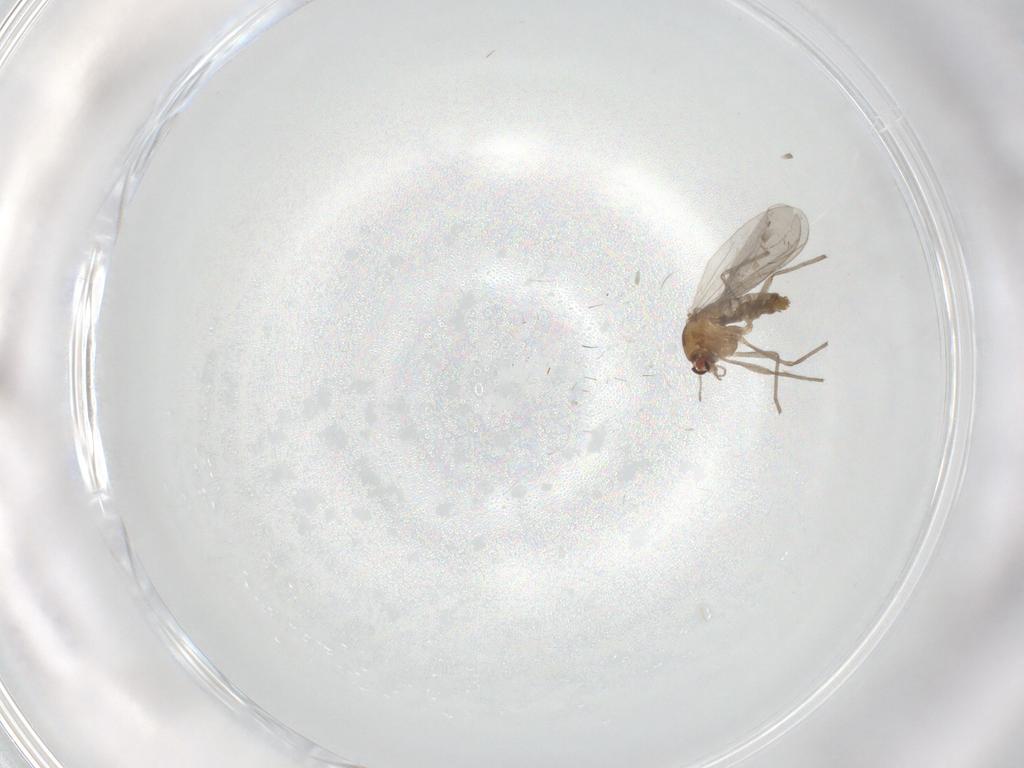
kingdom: Animalia
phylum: Arthropoda
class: Insecta
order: Diptera
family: Chironomidae
